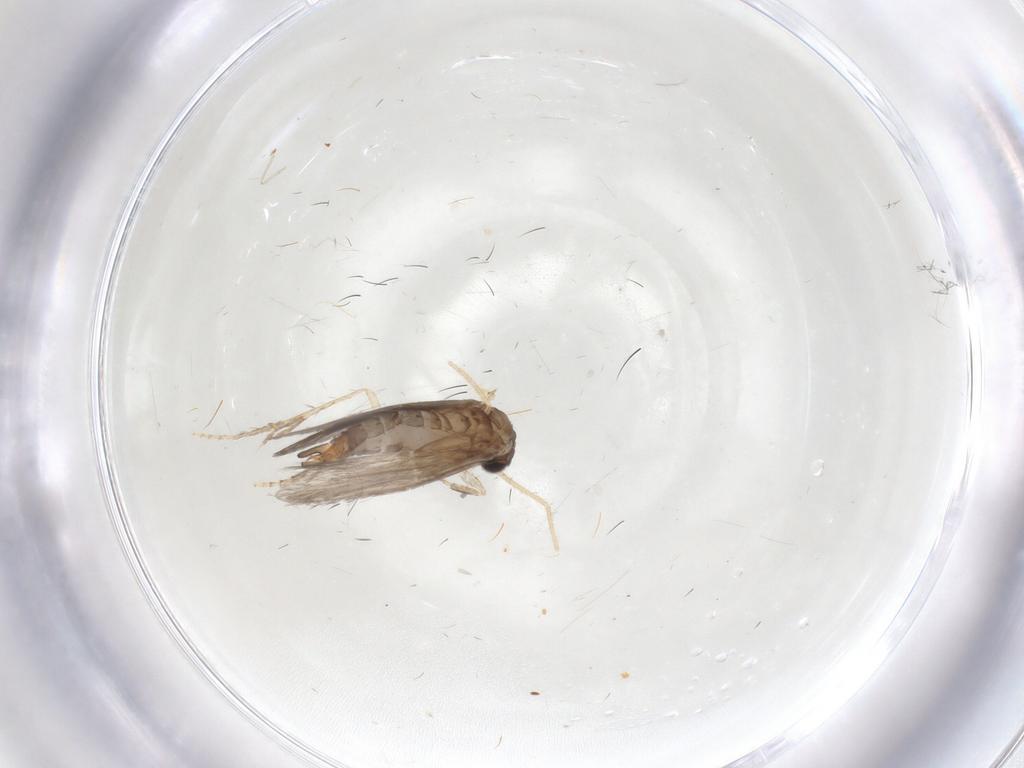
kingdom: Animalia
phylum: Arthropoda
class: Insecta
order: Trichoptera
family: Hydroptilidae
